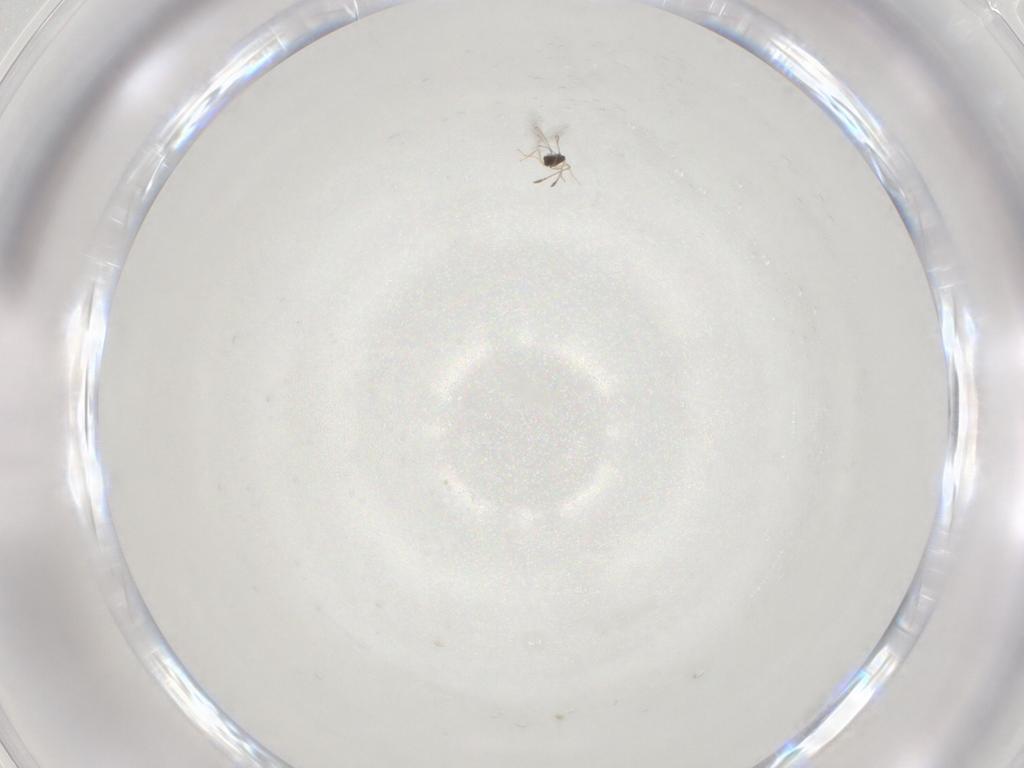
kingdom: Animalia
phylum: Arthropoda
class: Insecta
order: Hymenoptera
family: Mymaridae
